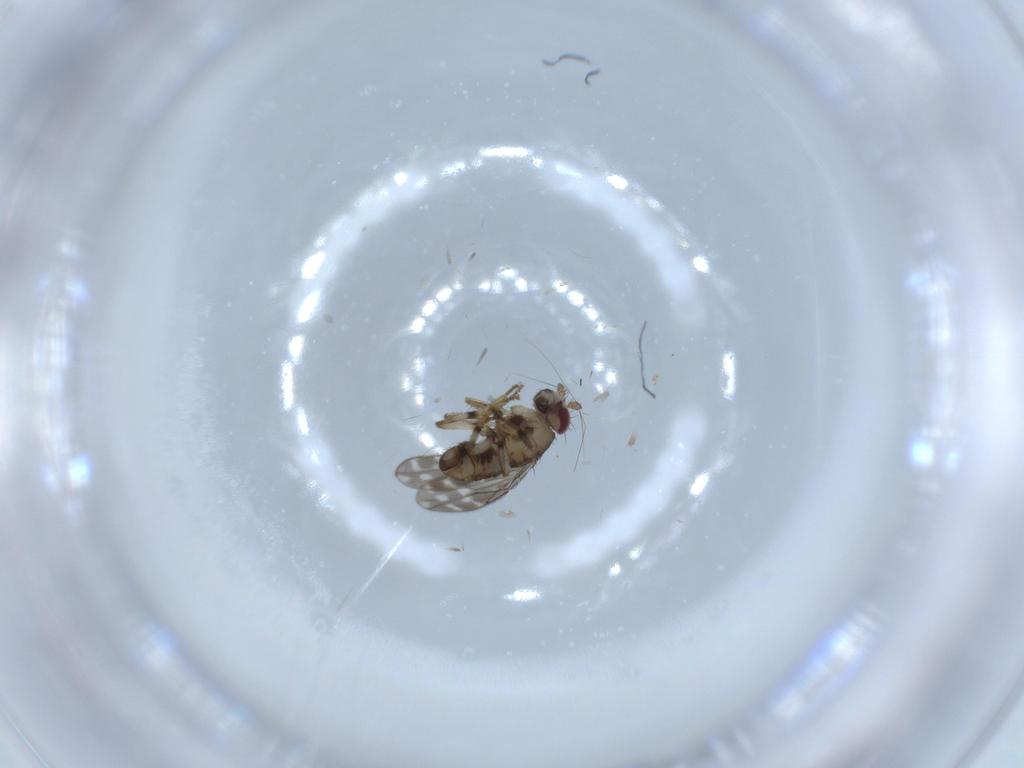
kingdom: Animalia
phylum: Arthropoda
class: Insecta
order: Diptera
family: Sphaeroceridae
